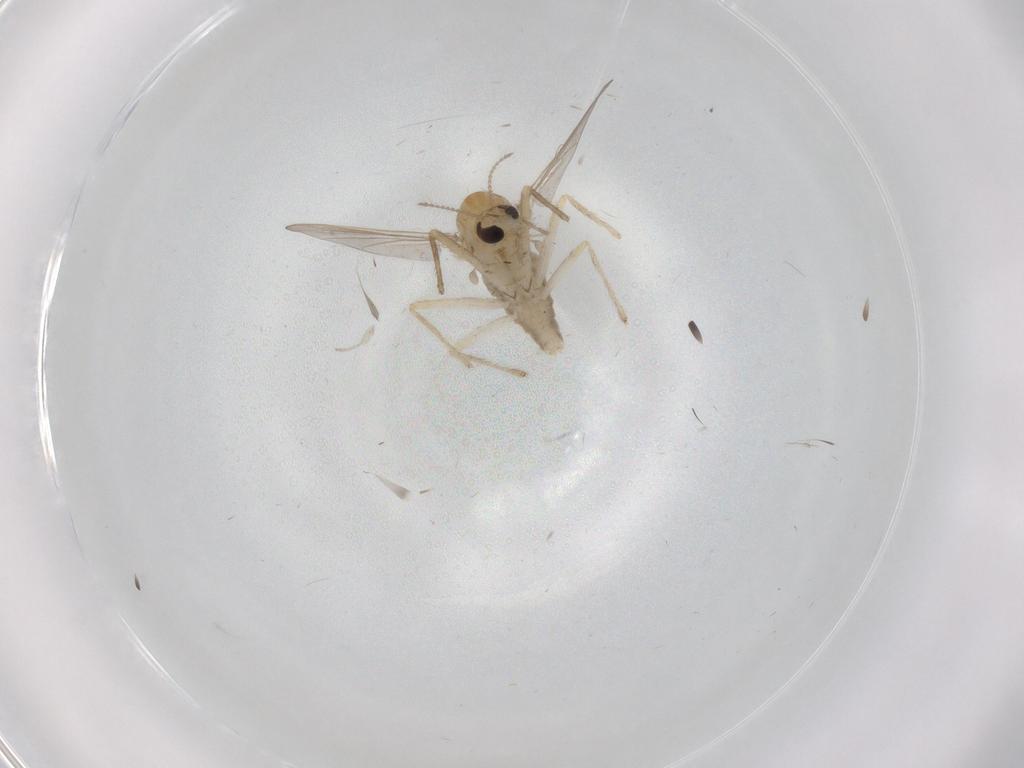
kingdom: Animalia
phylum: Arthropoda
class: Insecta
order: Diptera
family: Chironomidae
